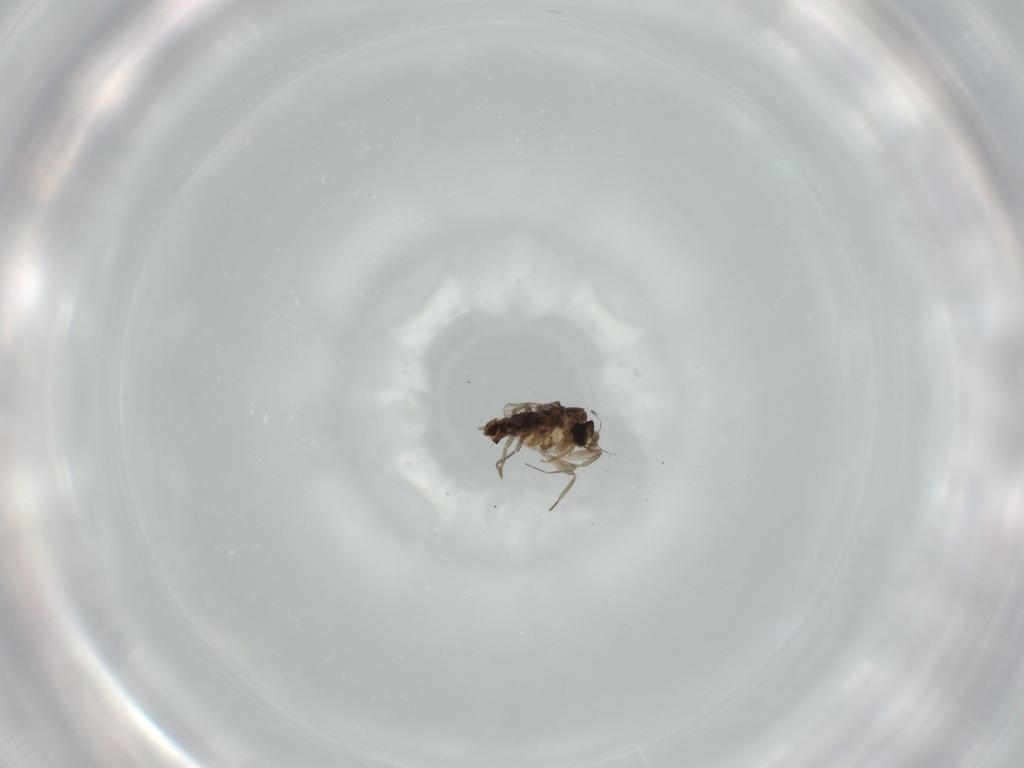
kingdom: Animalia
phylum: Arthropoda
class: Insecta
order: Diptera
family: Phoridae
